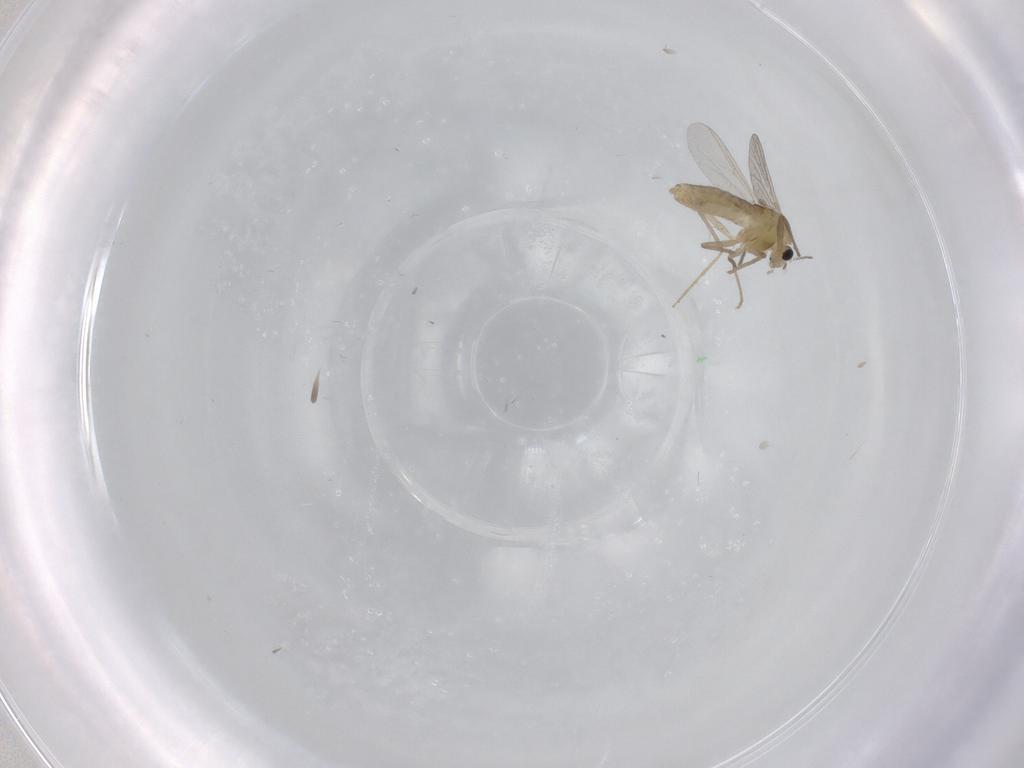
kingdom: Animalia
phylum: Arthropoda
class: Insecta
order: Diptera
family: Chironomidae
